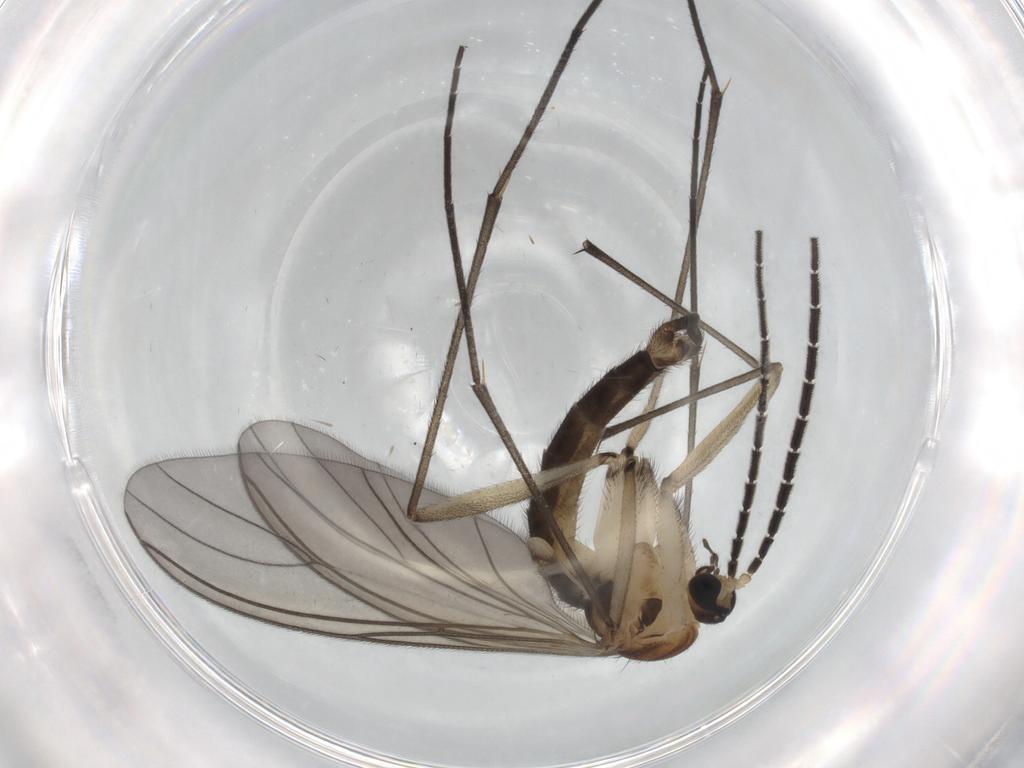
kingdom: Animalia
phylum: Arthropoda
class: Insecta
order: Diptera
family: Sciaridae
